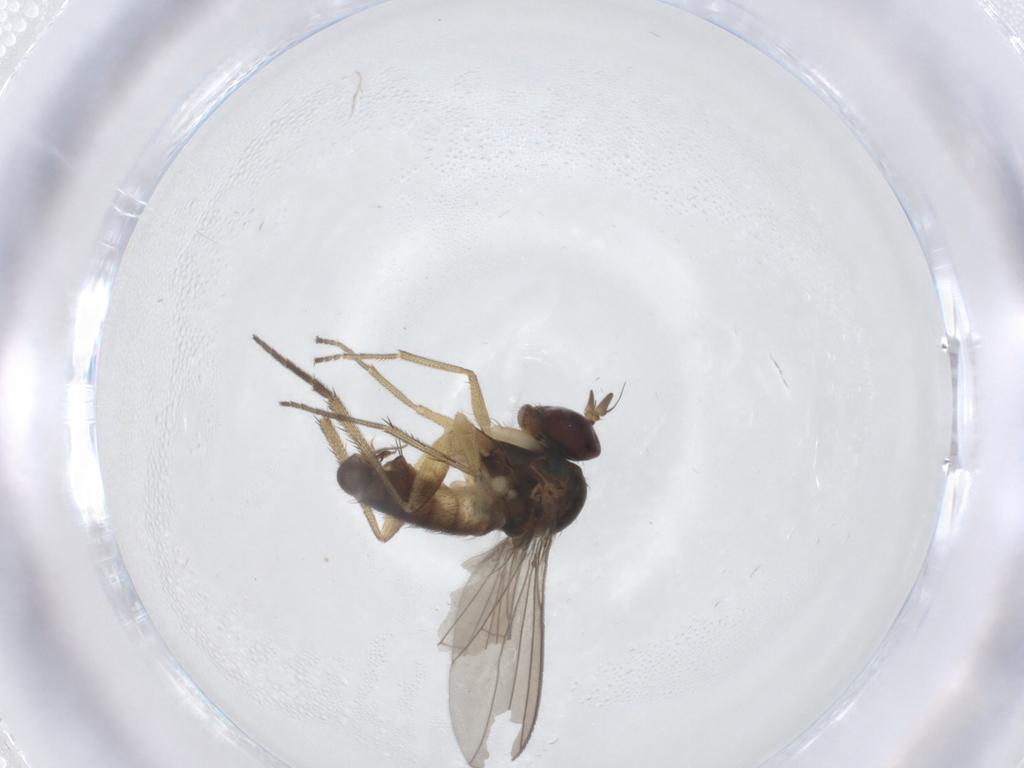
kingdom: Animalia
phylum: Arthropoda
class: Insecta
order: Diptera
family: Dolichopodidae
